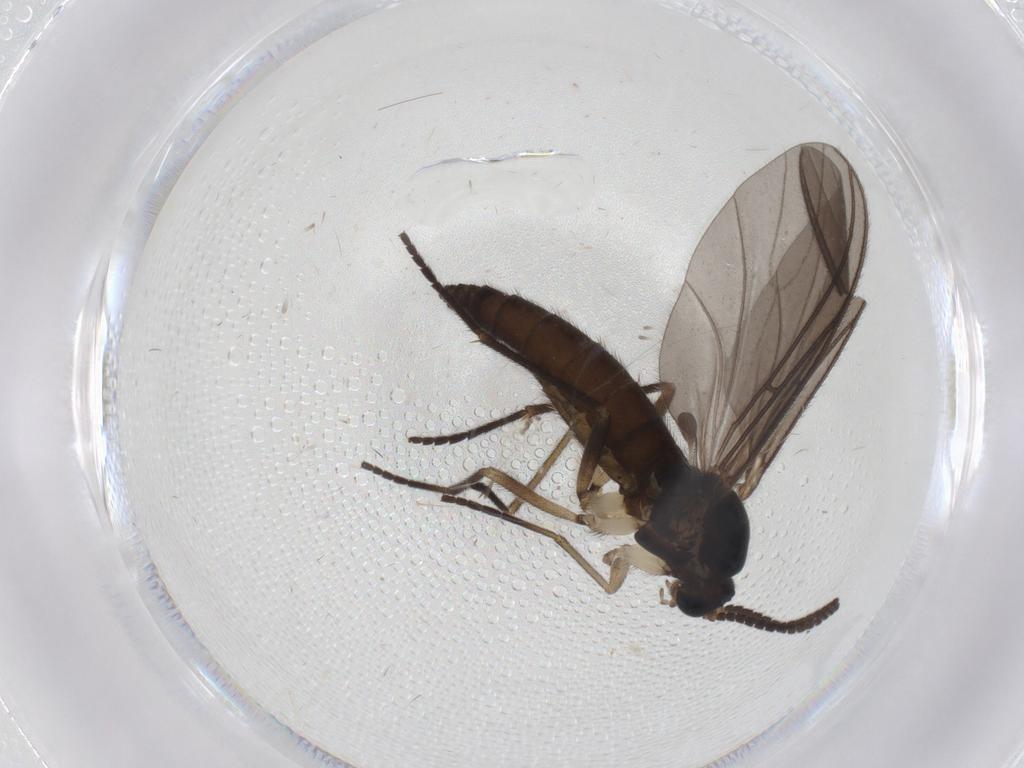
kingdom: Animalia
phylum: Arthropoda
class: Insecta
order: Diptera
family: Sciaridae
